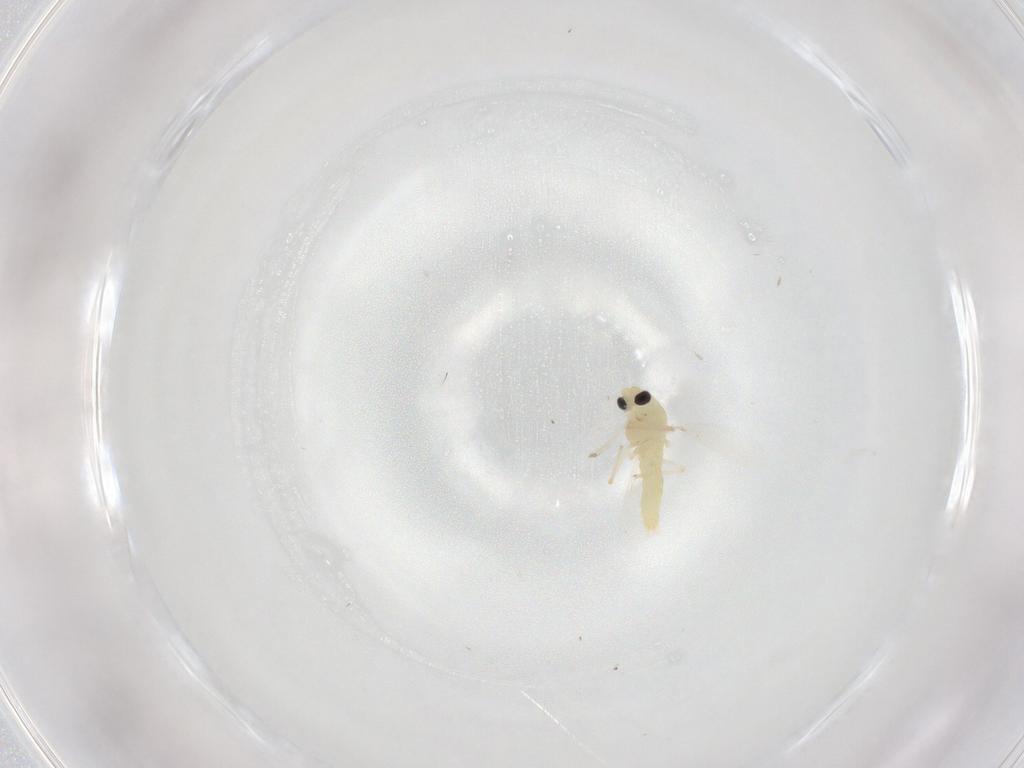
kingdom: Animalia
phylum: Arthropoda
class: Insecta
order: Diptera
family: Chironomidae
